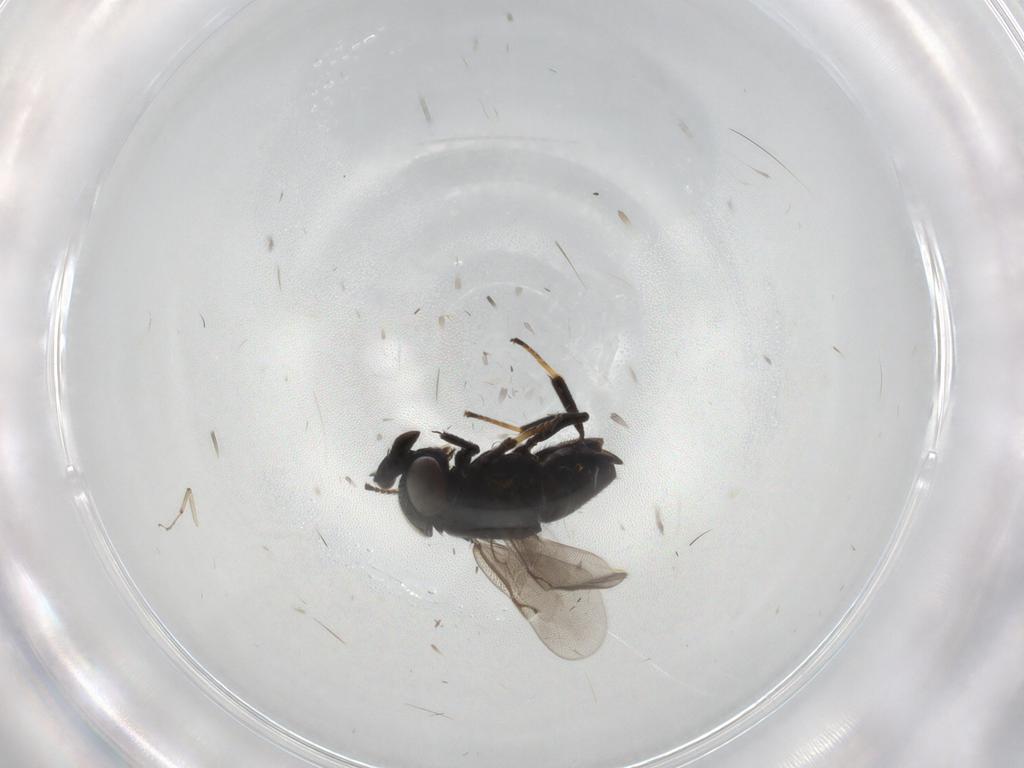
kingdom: Animalia
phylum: Arthropoda
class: Insecta
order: Hymenoptera
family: Encyrtidae
